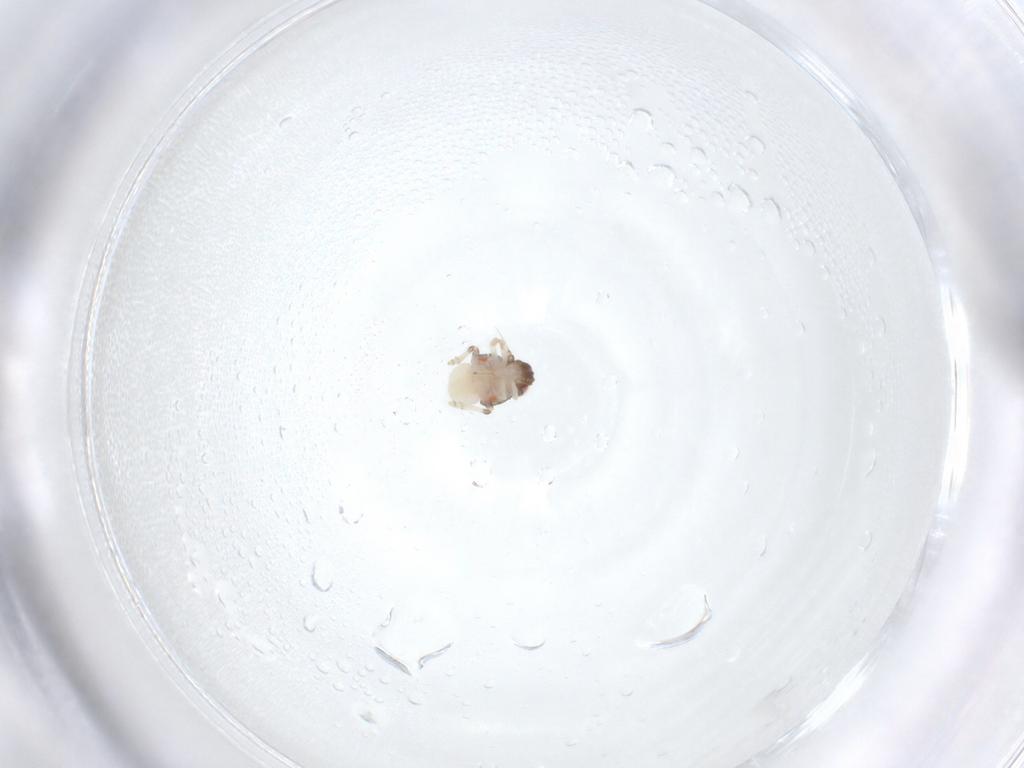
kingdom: Animalia
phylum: Arthropoda
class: Insecta
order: Hemiptera
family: Nogodinidae
